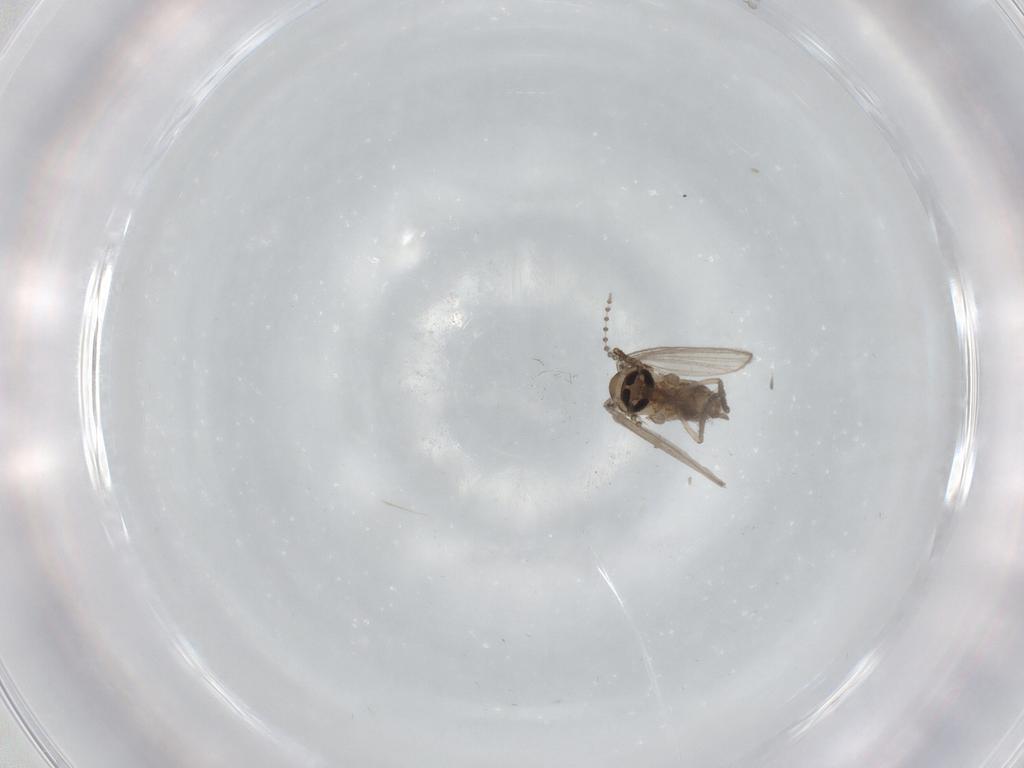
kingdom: Animalia
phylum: Arthropoda
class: Insecta
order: Diptera
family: Psychodidae
